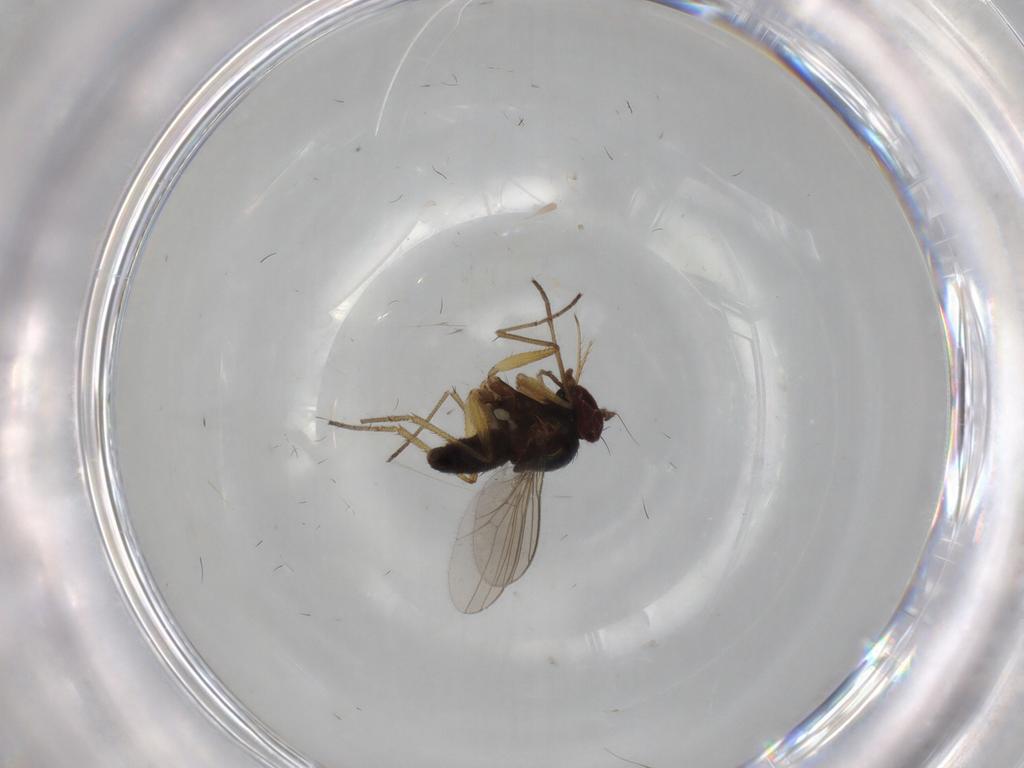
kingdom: Animalia
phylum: Arthropoda
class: Insecta
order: Diptera
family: Dolichopodidae
